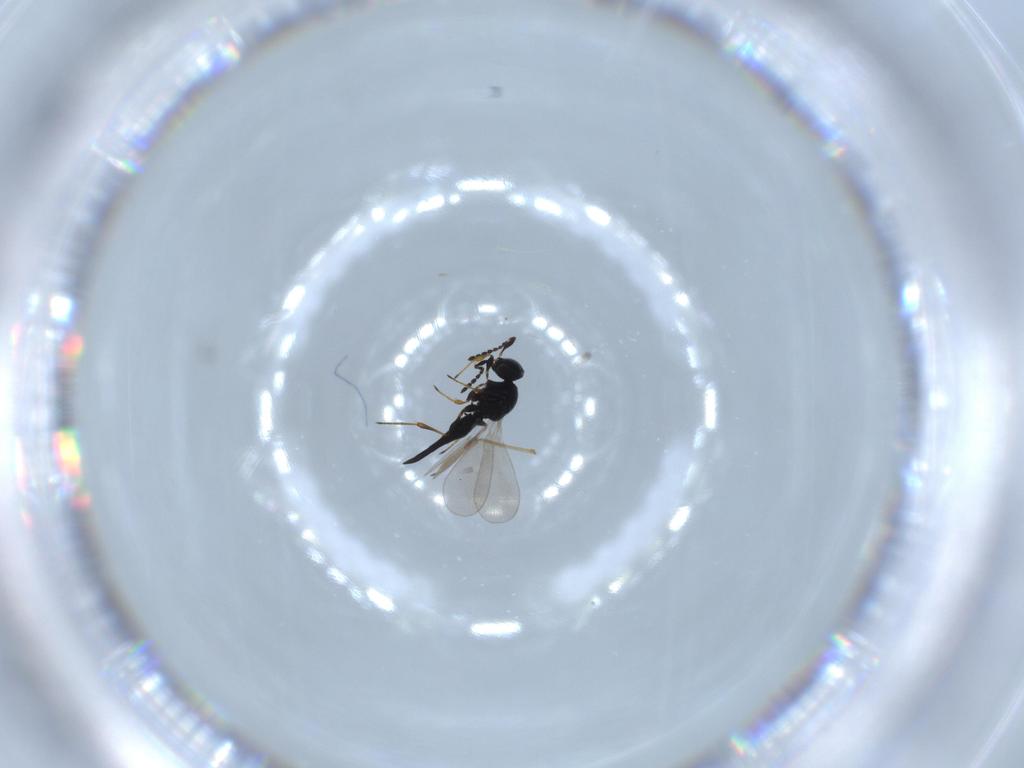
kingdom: Animalia
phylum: Arthropoda
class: Insecta
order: Hymenoptera
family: Platygastridae
